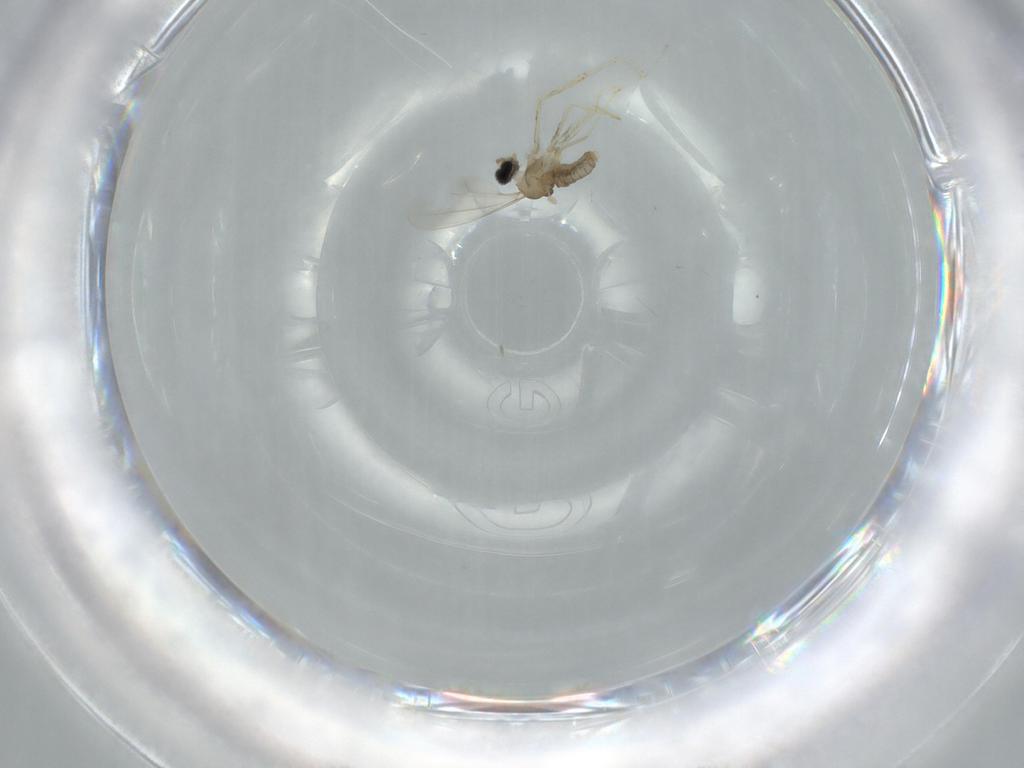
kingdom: Animalia
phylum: Arthropoda
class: Insecta
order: Diptera
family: Cecidomyiidae
